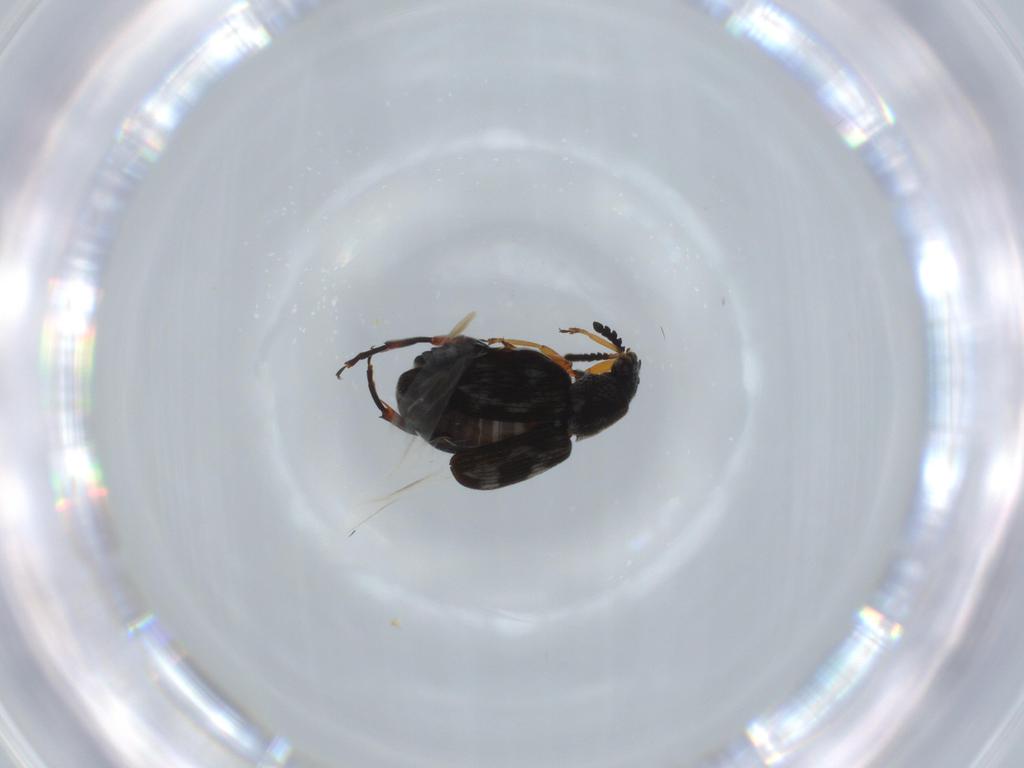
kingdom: Animalia
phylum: Arthropoda
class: Insecta
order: Coleoptera
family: Chrysomelidae
